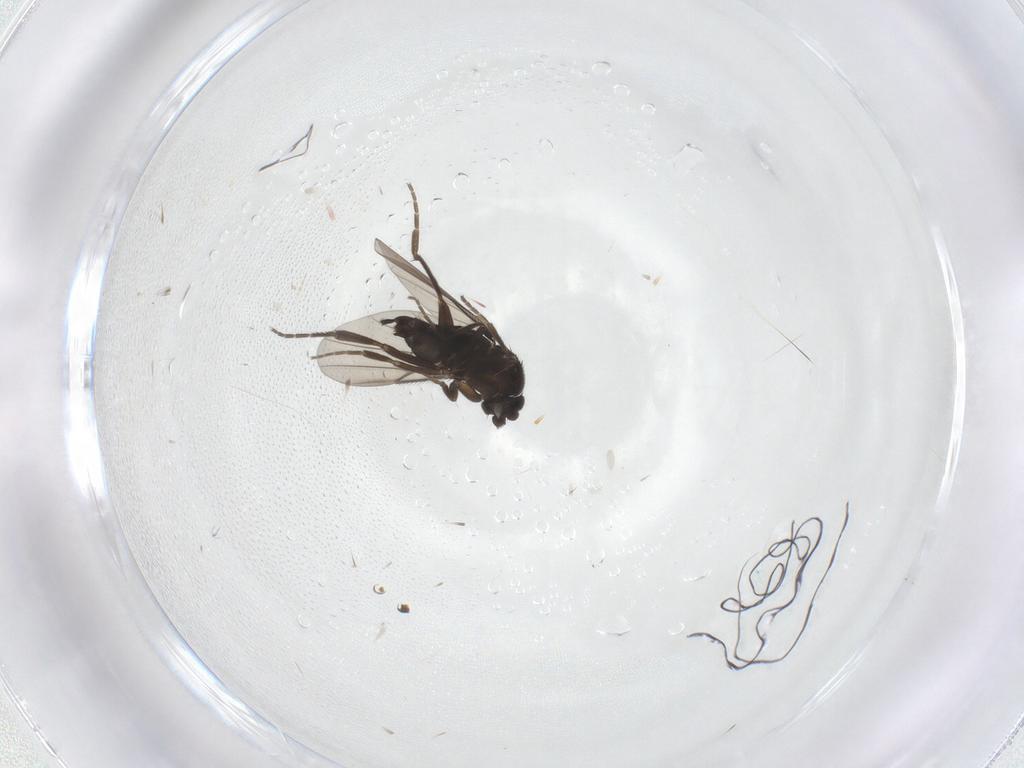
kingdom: Animalia
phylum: Arthropoda
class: Insecta
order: Diptera
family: Phoridae
